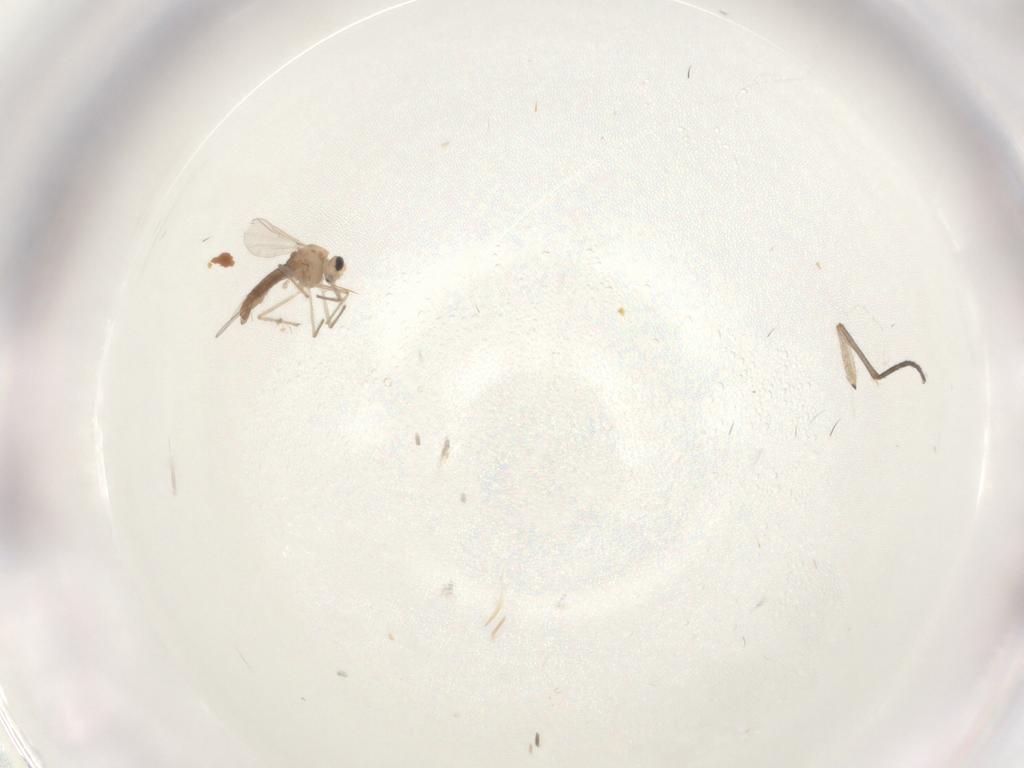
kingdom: Animalia
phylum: Arthropoda
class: Insecta
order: Diptera
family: Chironomidae
